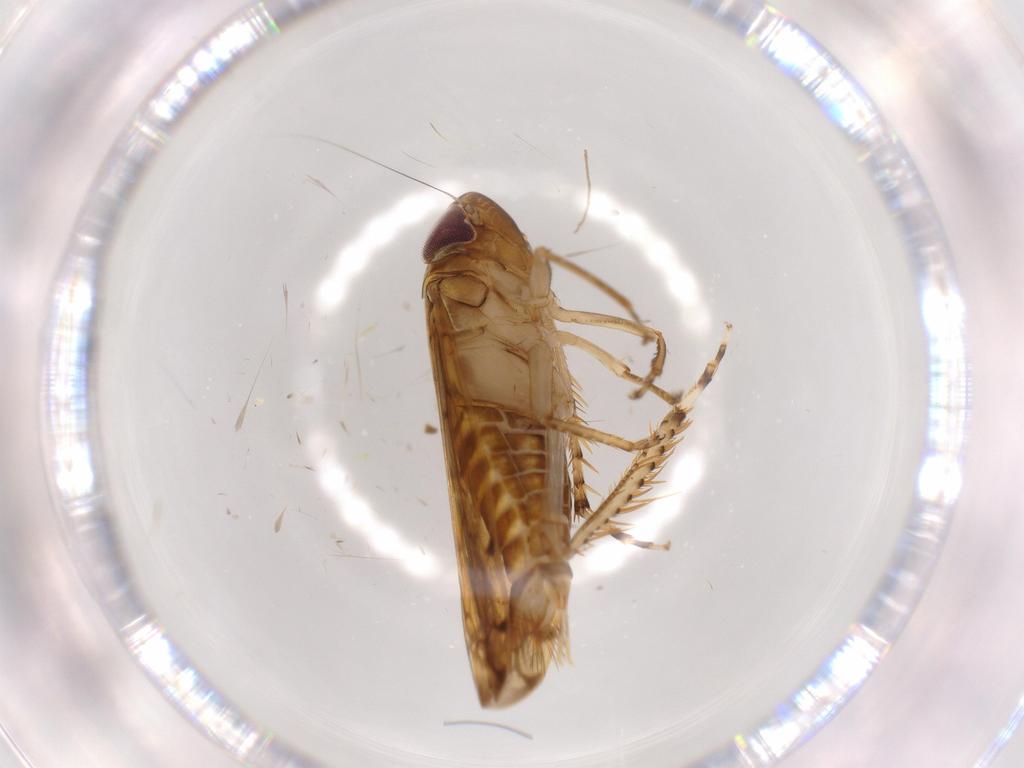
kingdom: Animalia
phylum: Arthropoda
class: Insecta
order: Hemiptera
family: Cicadellidae
